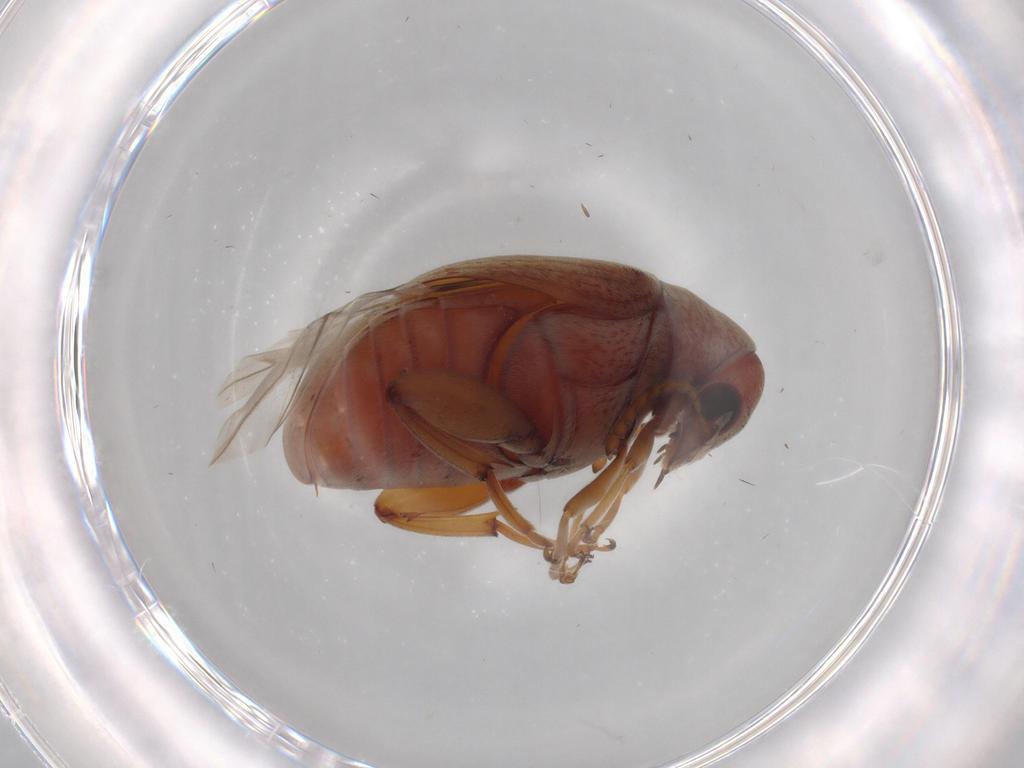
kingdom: Animalia
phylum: Arthropoda
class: Insecta
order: Coleoptera
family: Chrysomelidae
